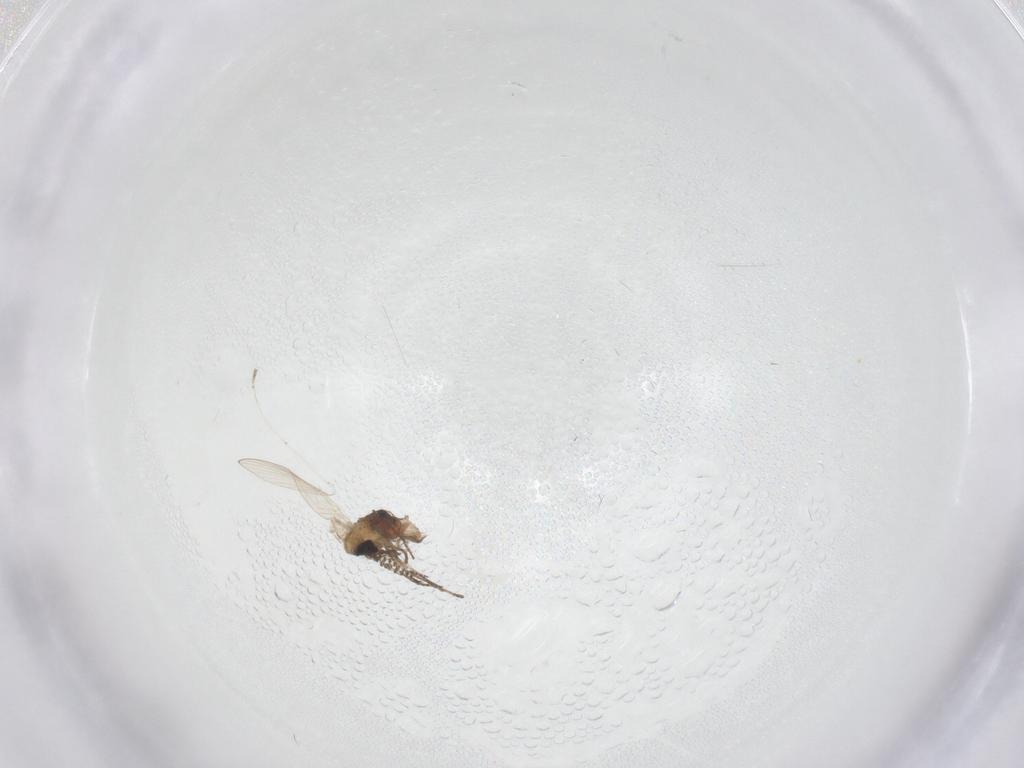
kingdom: Animalia
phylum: Arthropoda
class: Insecta
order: Diptera
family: Psychodidae
